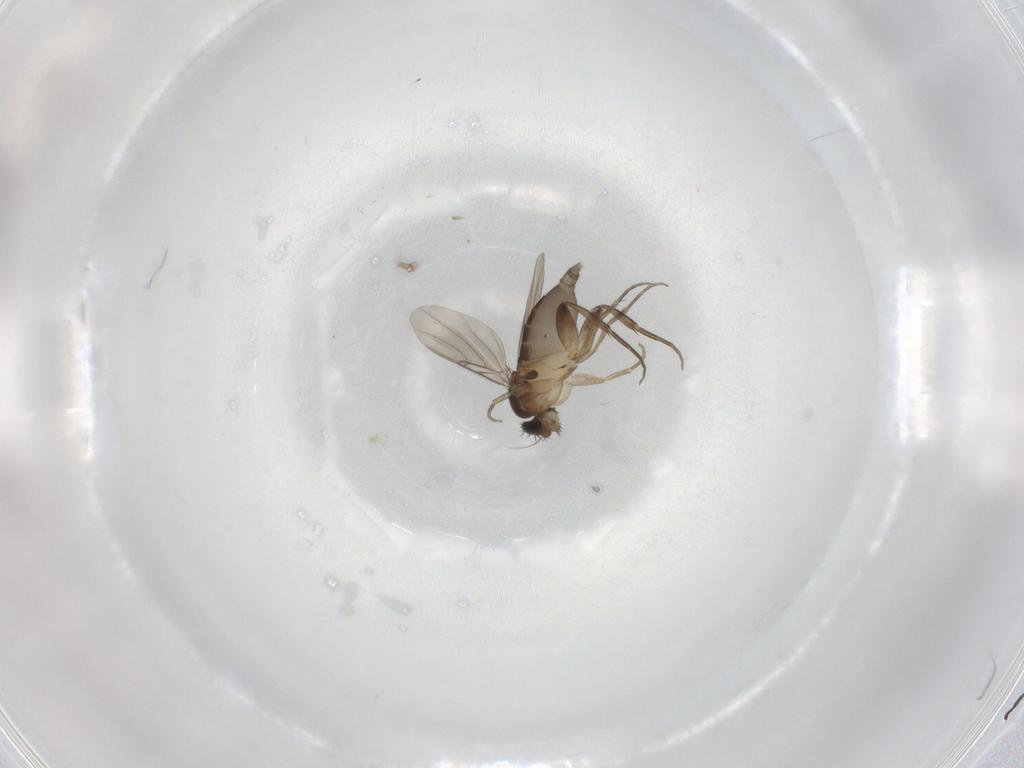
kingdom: Animalia
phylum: Arthropoda
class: Insecta
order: Diptera
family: Phoridae
